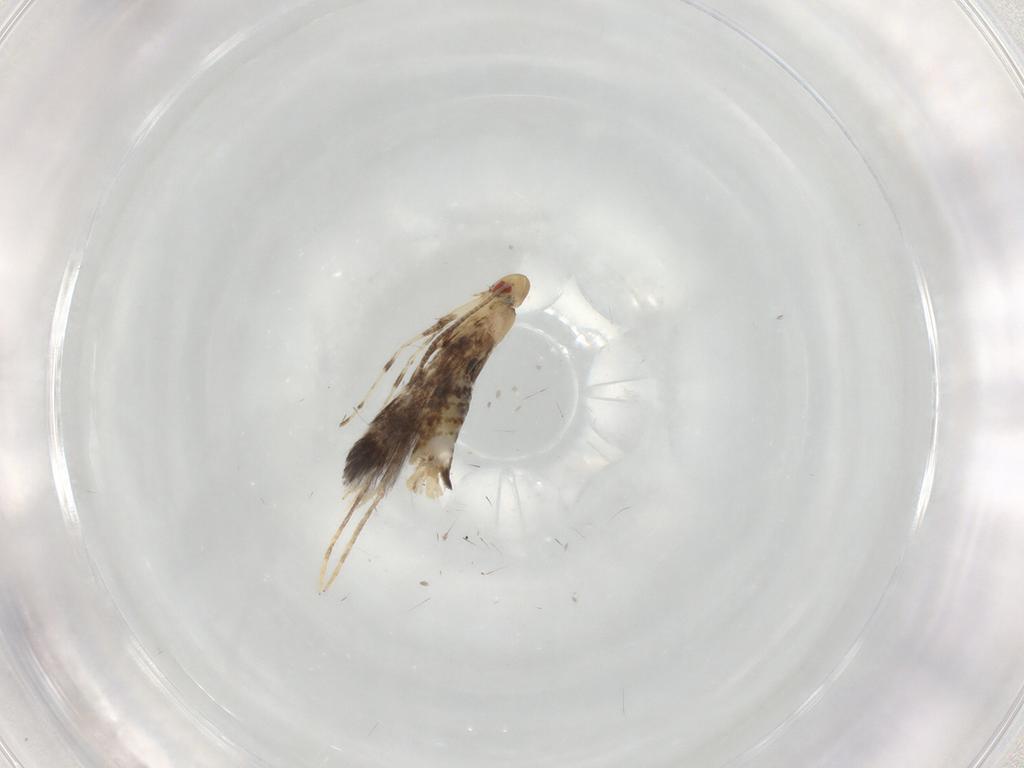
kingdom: Animalia
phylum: Arthropoda
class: Insecta
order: Lepidoptera
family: Gracillariidae
